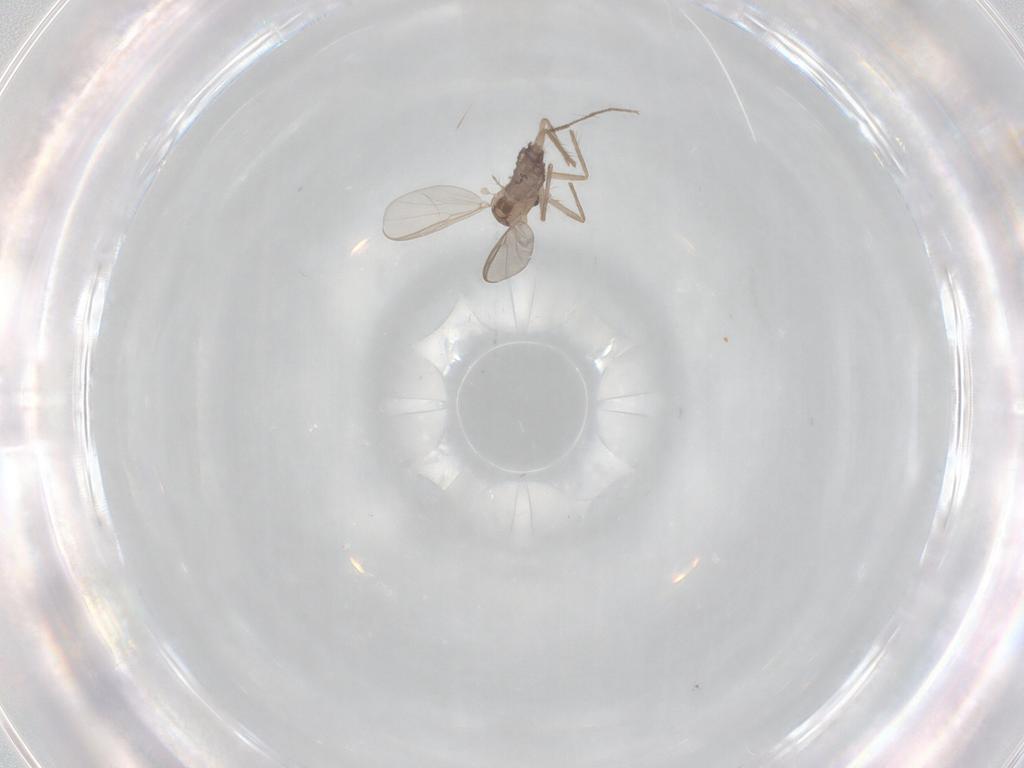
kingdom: Animalia
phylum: Arthropoda
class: Insecta
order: Diptera
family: Chironomidae
